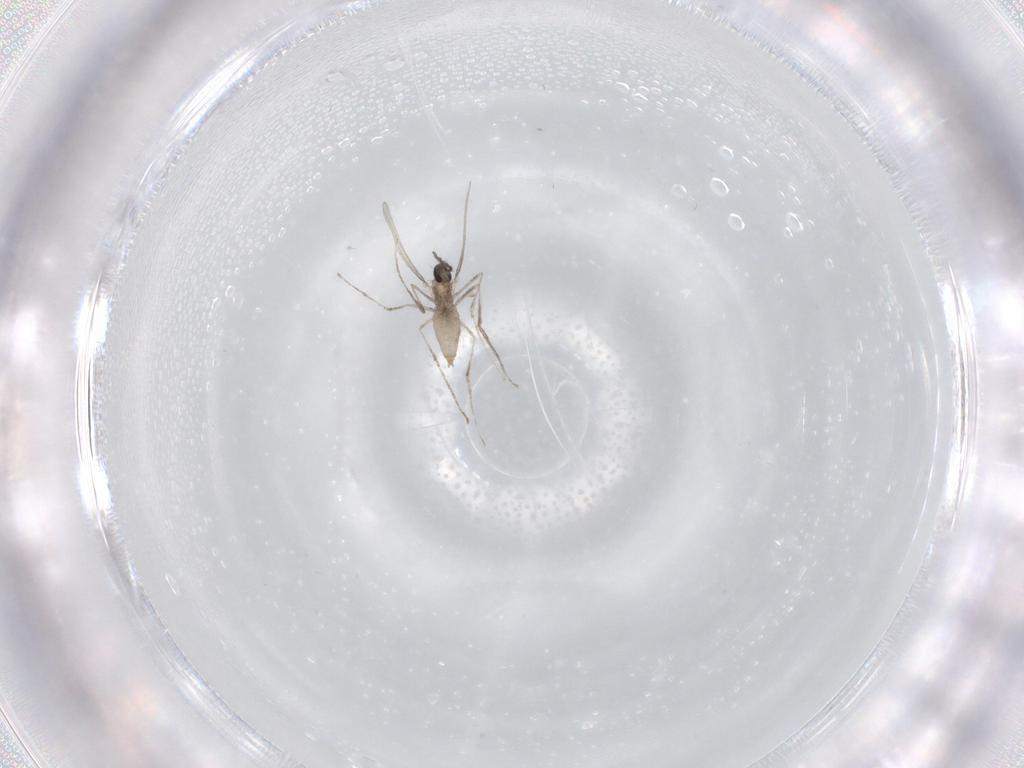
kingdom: Animalia
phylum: Arthropoda
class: Insecta
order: Diptera
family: Cecidomyiidae
